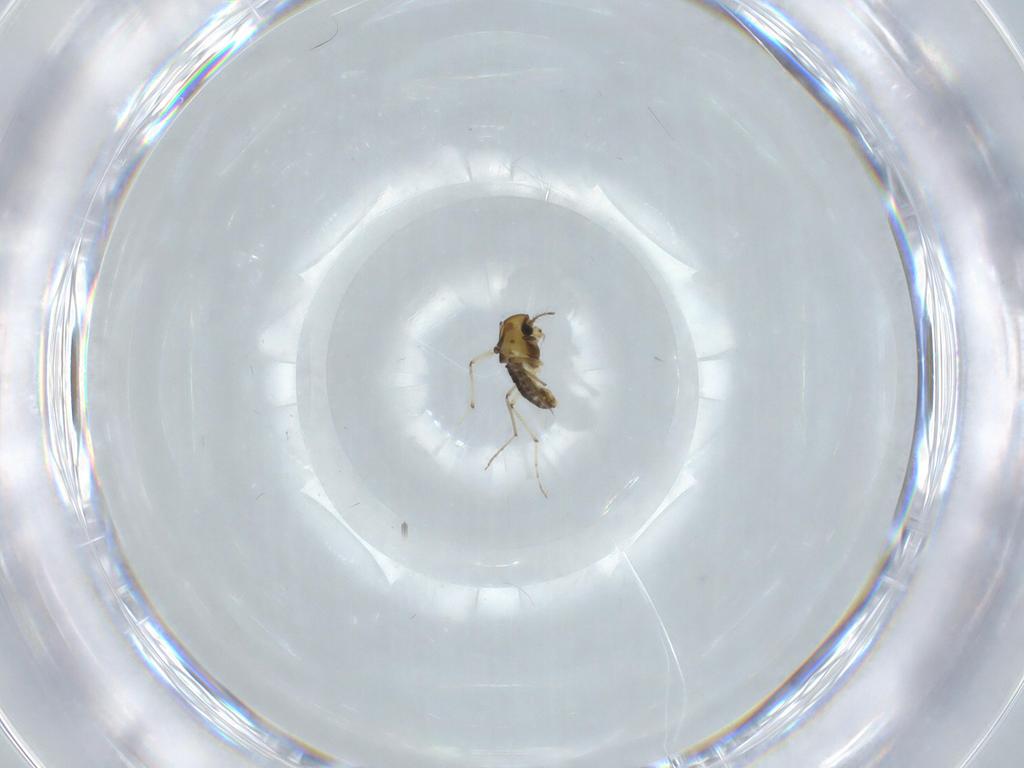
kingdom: Animalia
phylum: Arthropoda
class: Insecta
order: Diptera
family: Chironomidae
